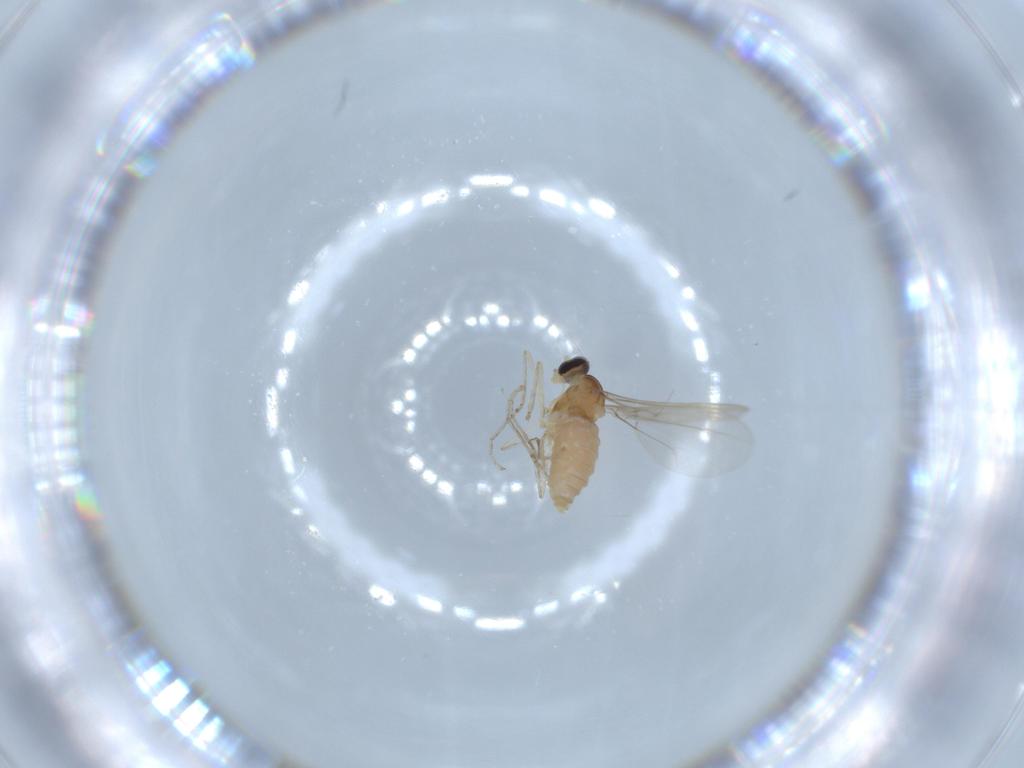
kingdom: Animalia
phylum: Arthropoda
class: Insecta
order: Diptera
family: Cecidomyiidae
